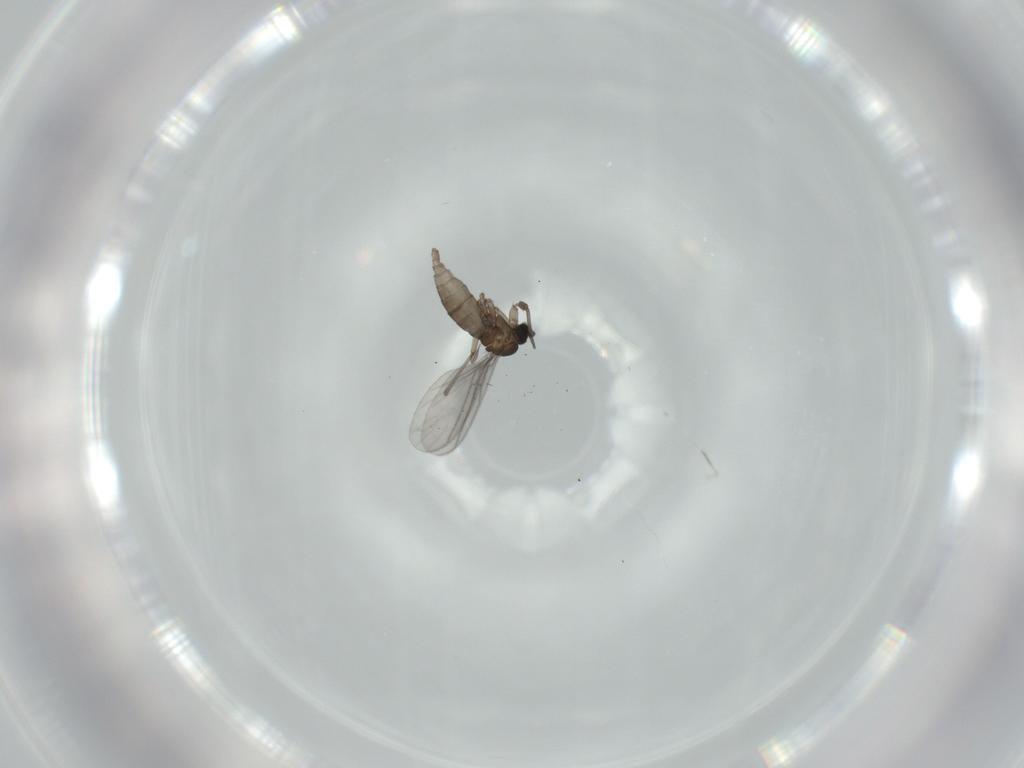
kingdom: Animalia
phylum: Arthropoda
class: Insecta
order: Diptera
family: Sciaridae
